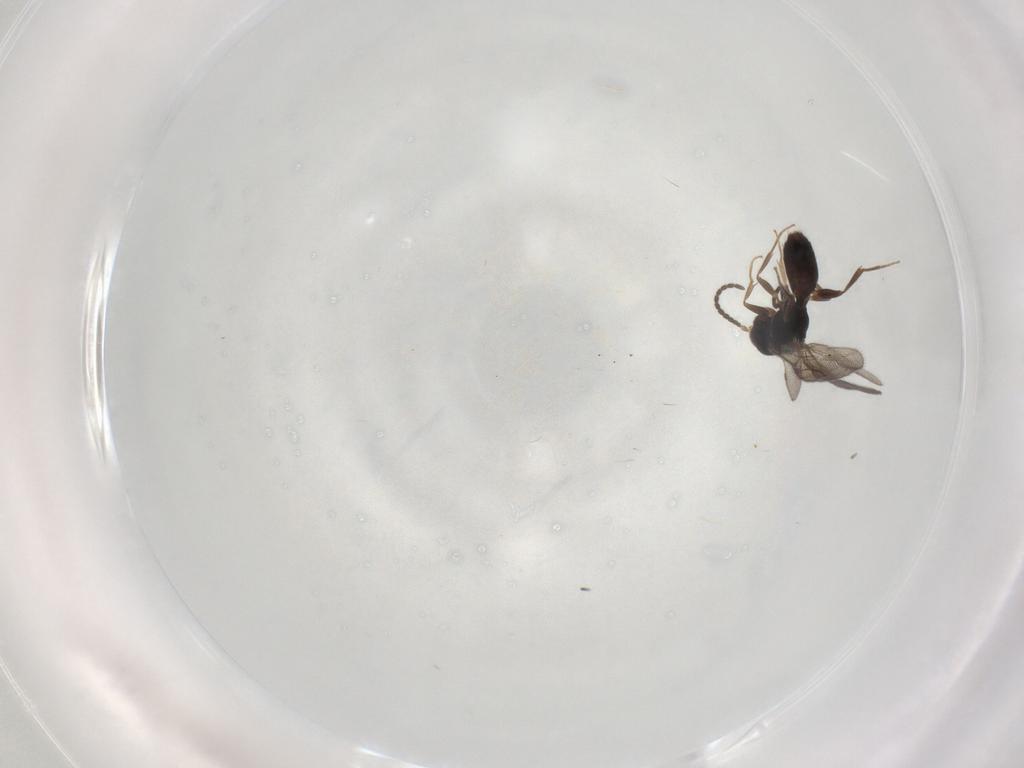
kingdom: Animalia
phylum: Arthropoda
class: Insecta
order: Hymenoptera
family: Bethylidae
